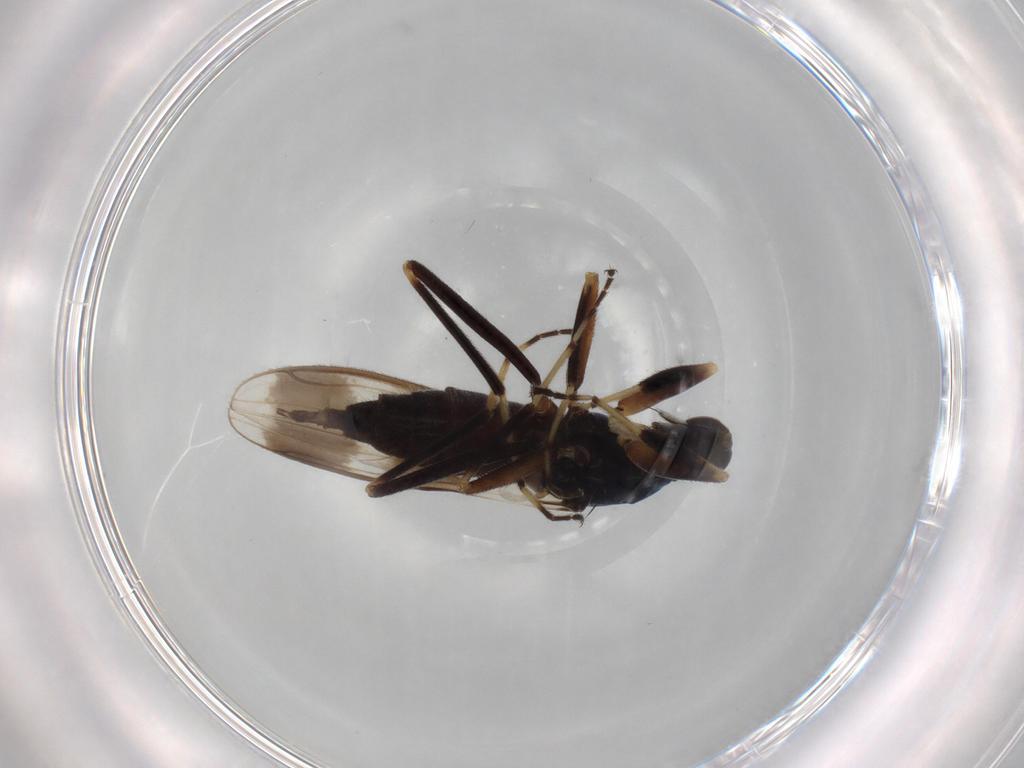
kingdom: Animalia
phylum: Arthropoda
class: Insecta
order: Diptera
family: Hybotidae
